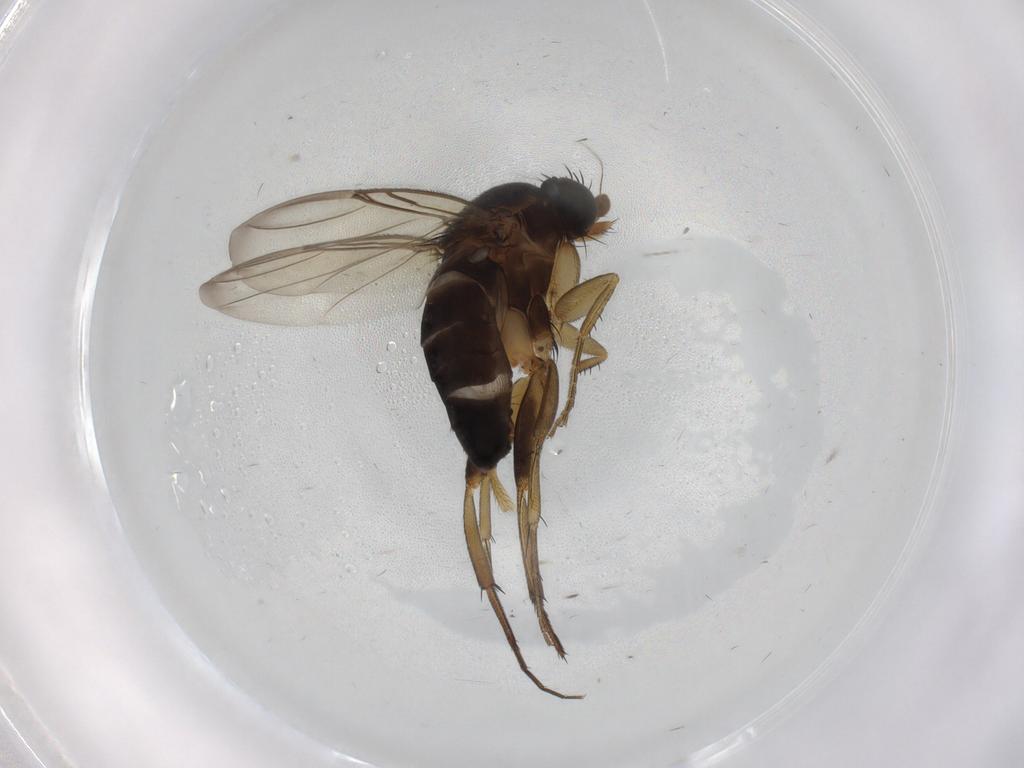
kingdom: Animalia
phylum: Arthropoda
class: Insecta
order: Diptera
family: Phoridae
